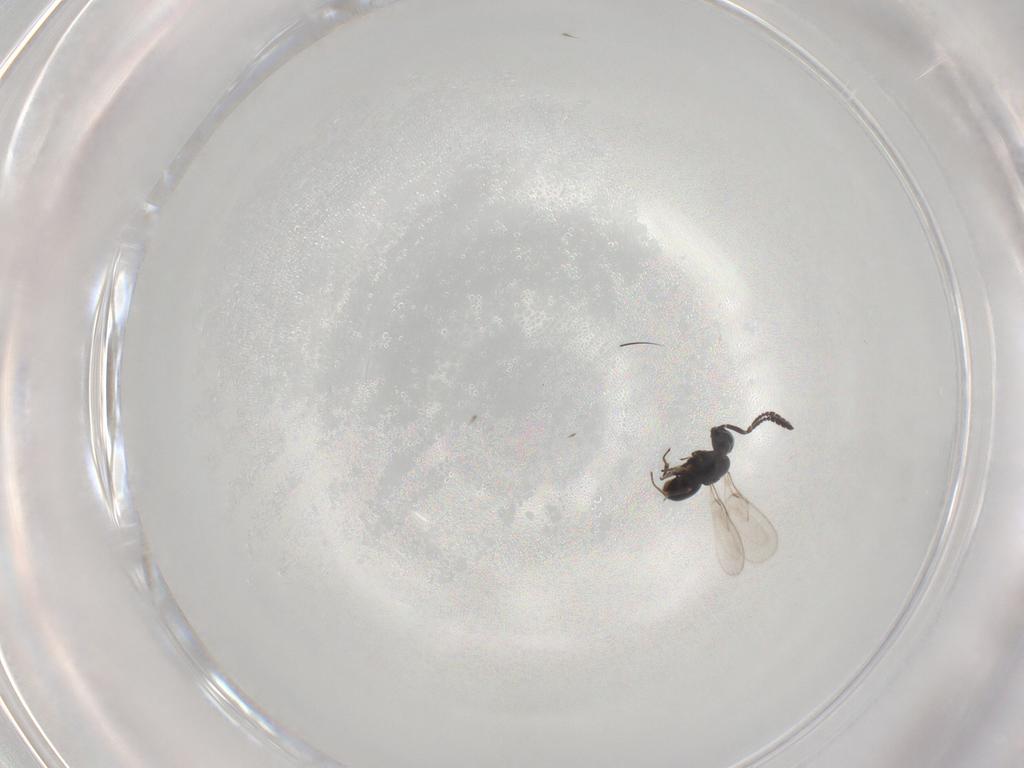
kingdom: Animalia
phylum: Arthropoda
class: Insecta
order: Hymenoptera
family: Scelionidae
